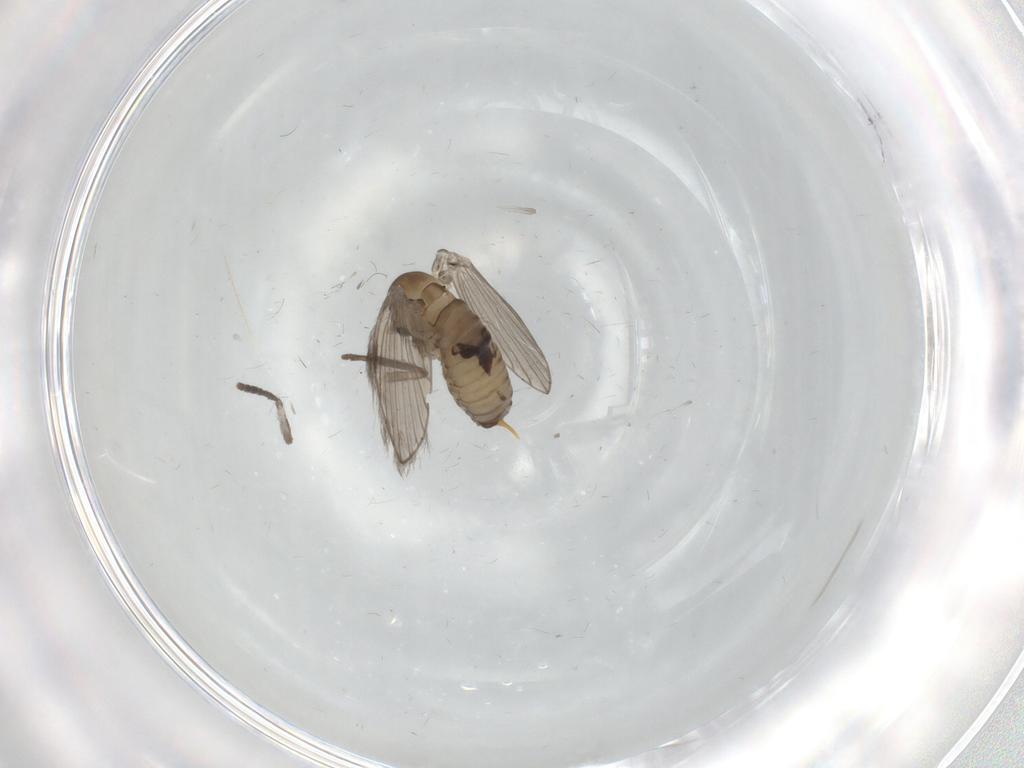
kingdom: Animalia
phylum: Arthropoda
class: Insecta
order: Diptera
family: Psychodidae
